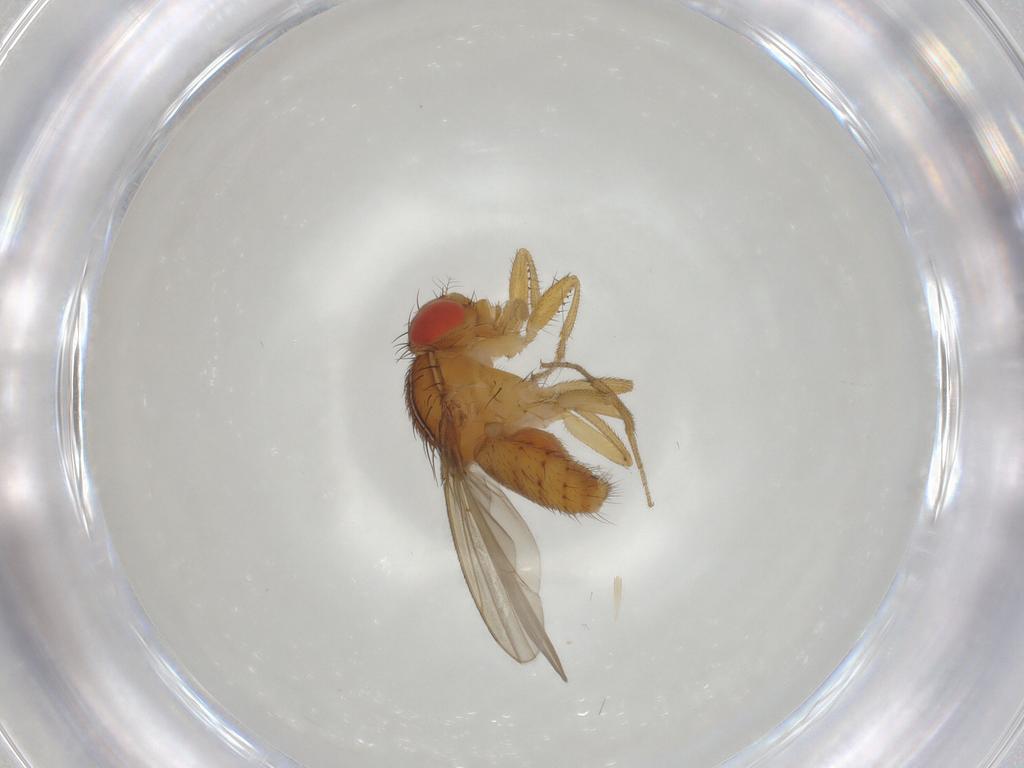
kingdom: Animalia
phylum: Arthropoda
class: Insecta
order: Diptera
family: Drosophilidae
